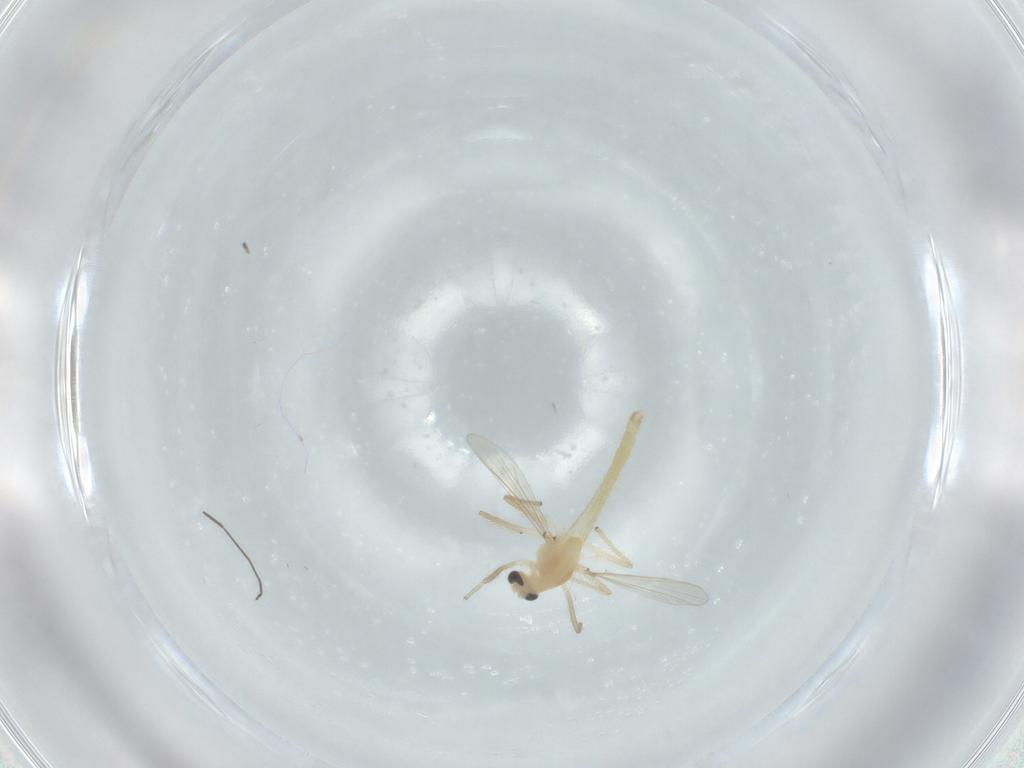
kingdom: Animalia
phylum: Arthropoda
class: Insecta
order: Diptera
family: Chironomidae
